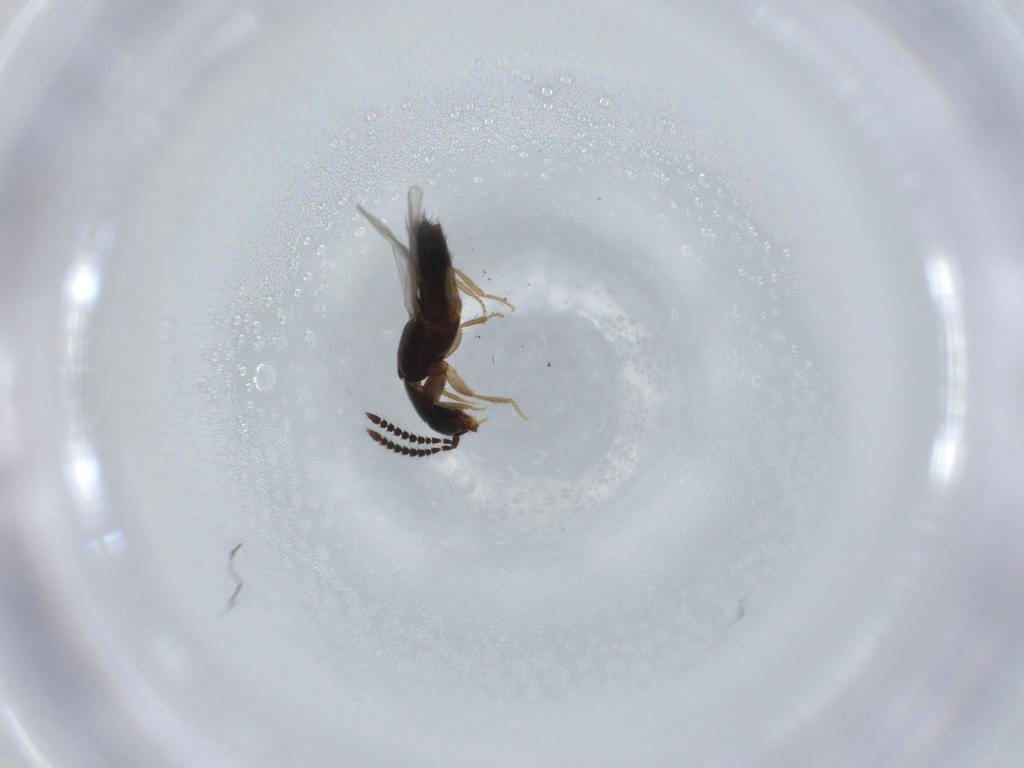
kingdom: Animalia
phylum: Arthropoda
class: Insecta
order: Coleoptera
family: Staphylinidae
